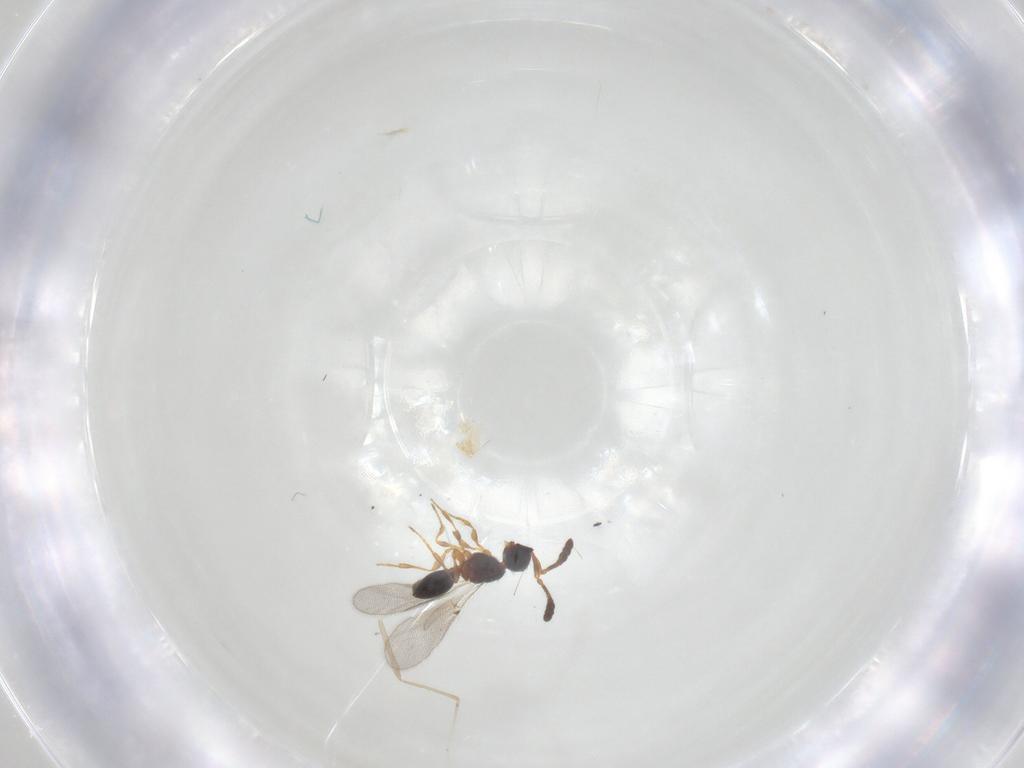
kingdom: Animalia
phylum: Arthropoda
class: Insecta
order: Hymenoptera
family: Diapriidae
